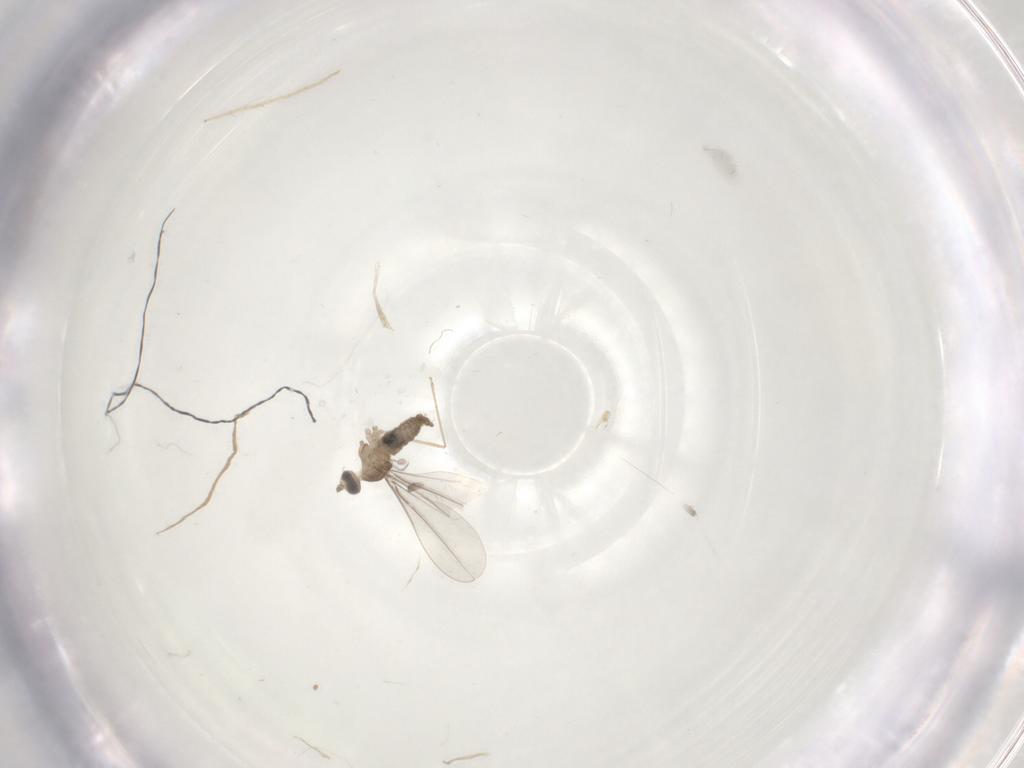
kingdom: Animalia
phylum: Arthropoda
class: Insecta
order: Diptera
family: Cecidomyiidae
